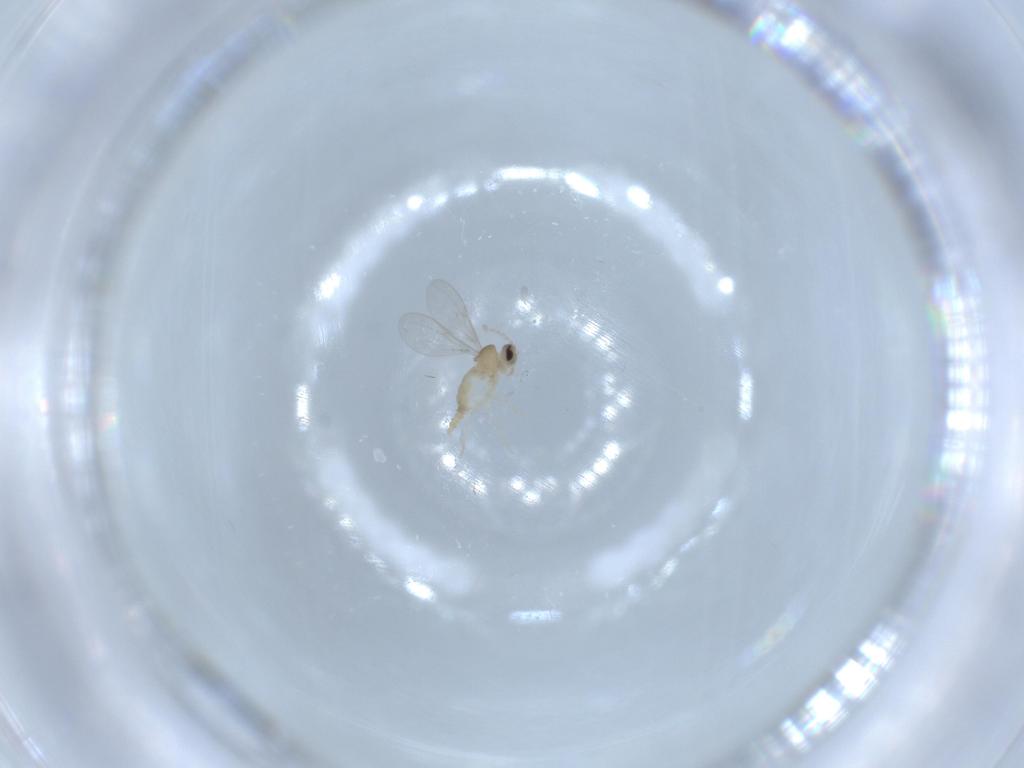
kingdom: Animalia
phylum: Arthropoda
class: Insecta
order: Diptera
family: Cecidomyiidae
